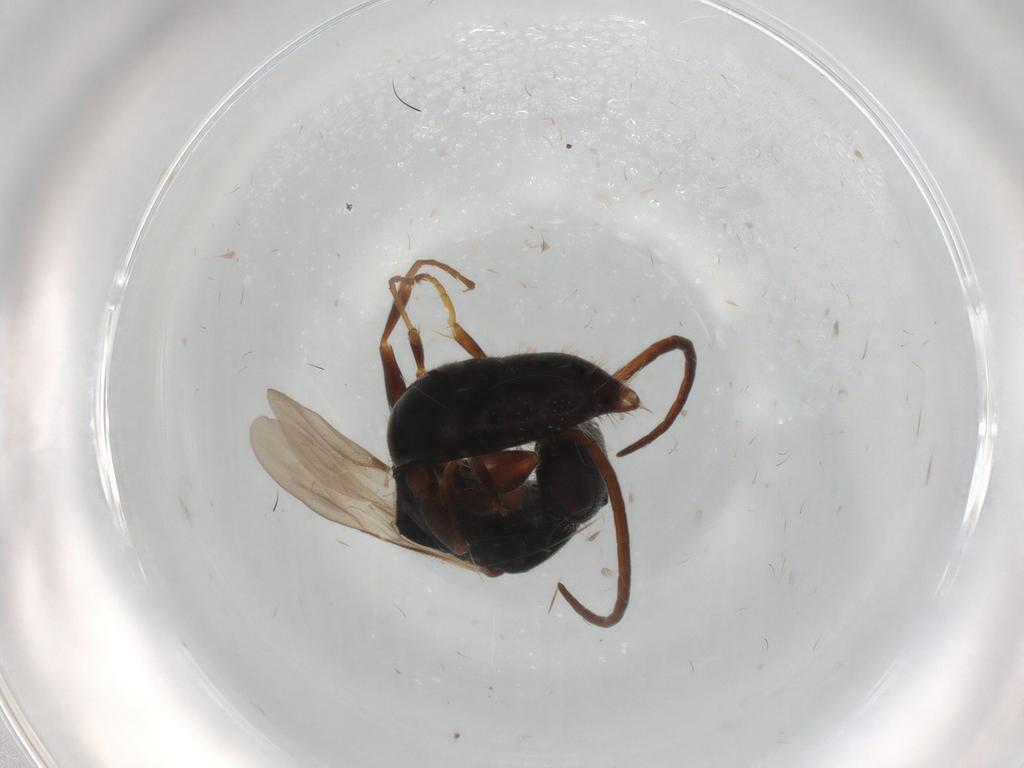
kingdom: Animalia
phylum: Arthropoda
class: Insecta
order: Hymenoptera
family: Bethylidae
